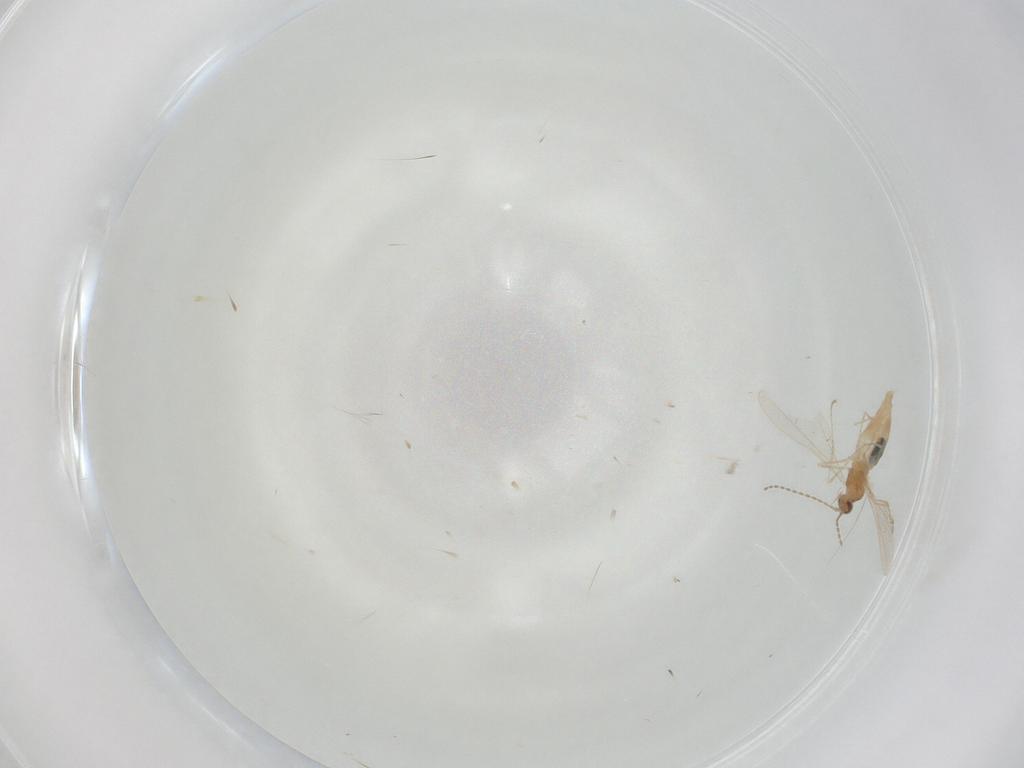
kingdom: Animalia
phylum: Arthropoda
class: Insecta
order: Diptera
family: Cecidomyiidae
